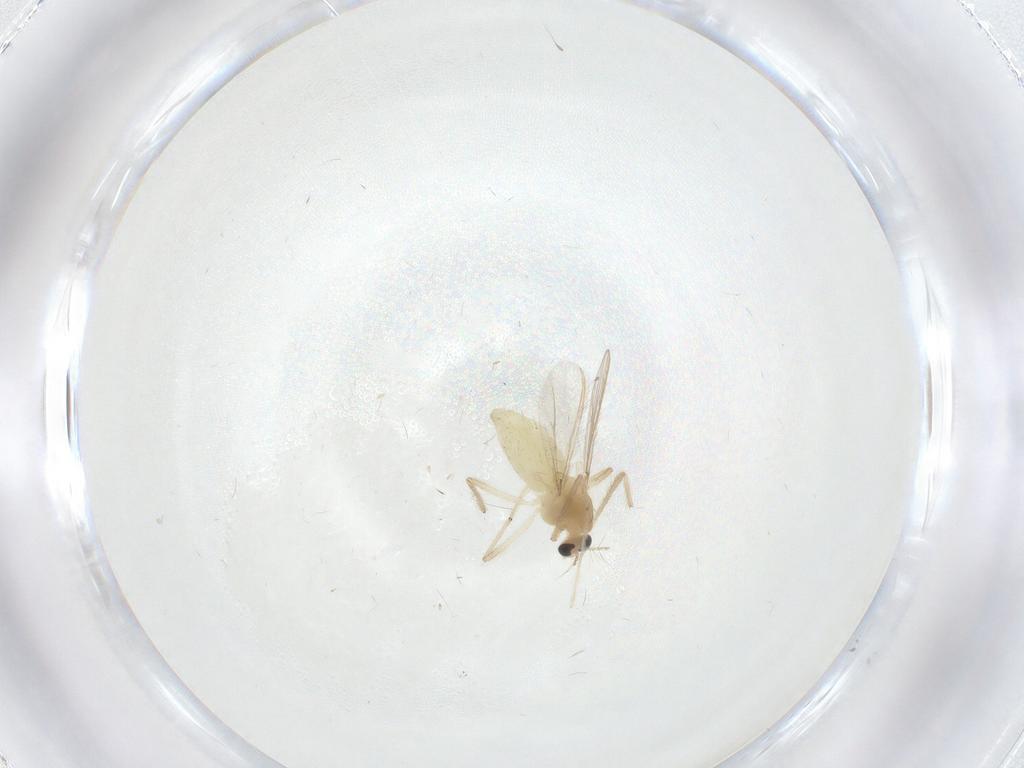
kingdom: Animalia
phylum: Arthropoda
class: Insecta
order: Diptera
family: Chironomidae
